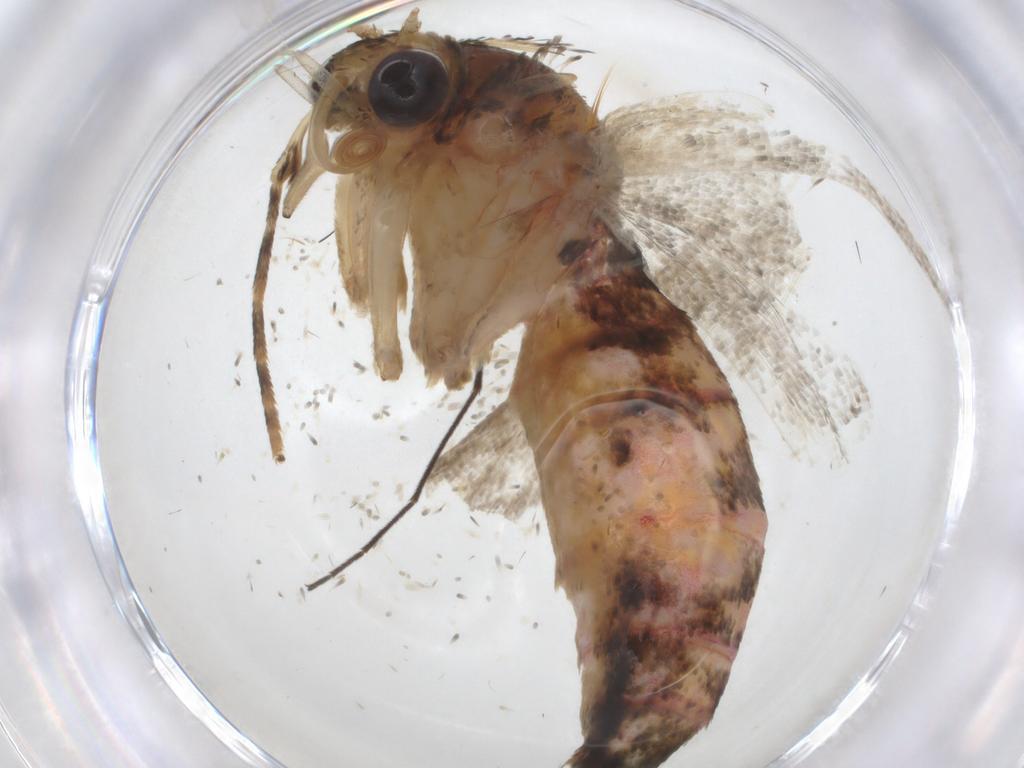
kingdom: Animalia
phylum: Arthropoda
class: Insecta
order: Lepidoptera
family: Geometridae
